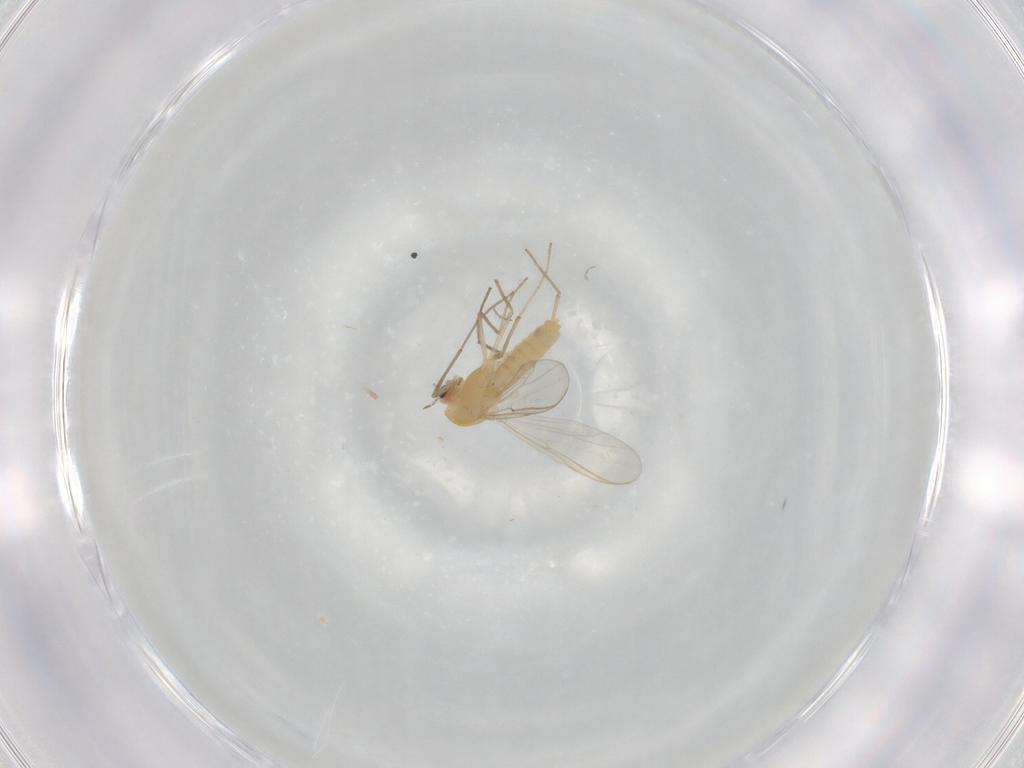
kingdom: Animalia
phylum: Arthropoda
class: Insecta
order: Diptera
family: Chironomidae
